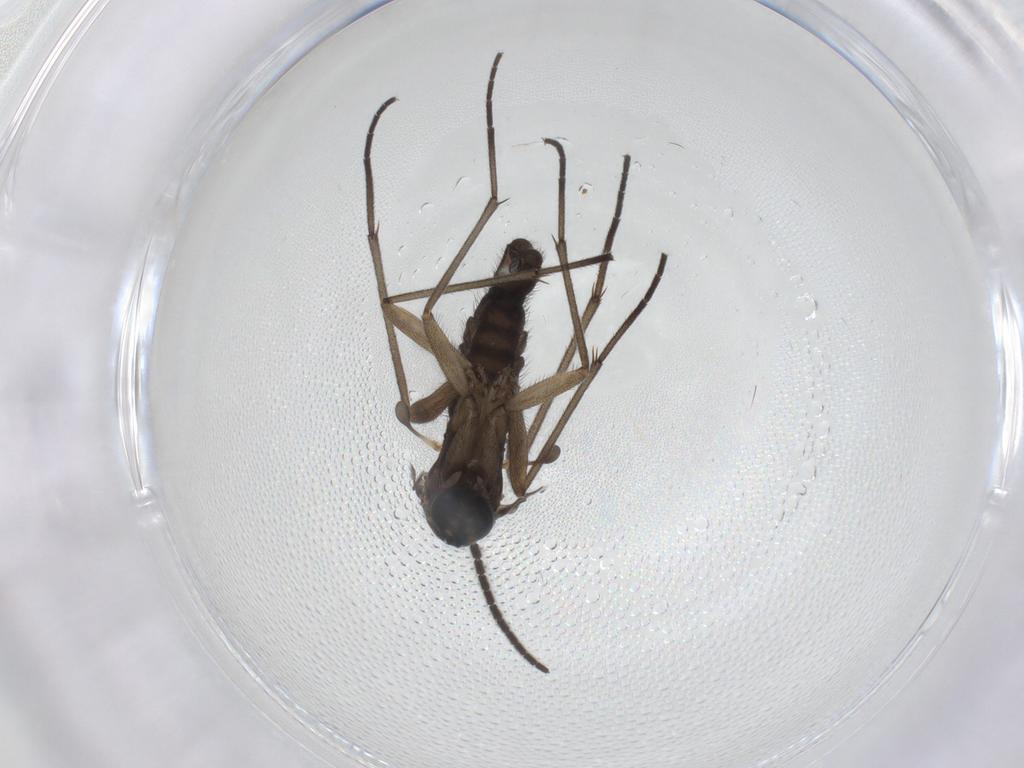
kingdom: Animalia
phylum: Arthropoda
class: Insecta
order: Diptera
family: Sciaridae
